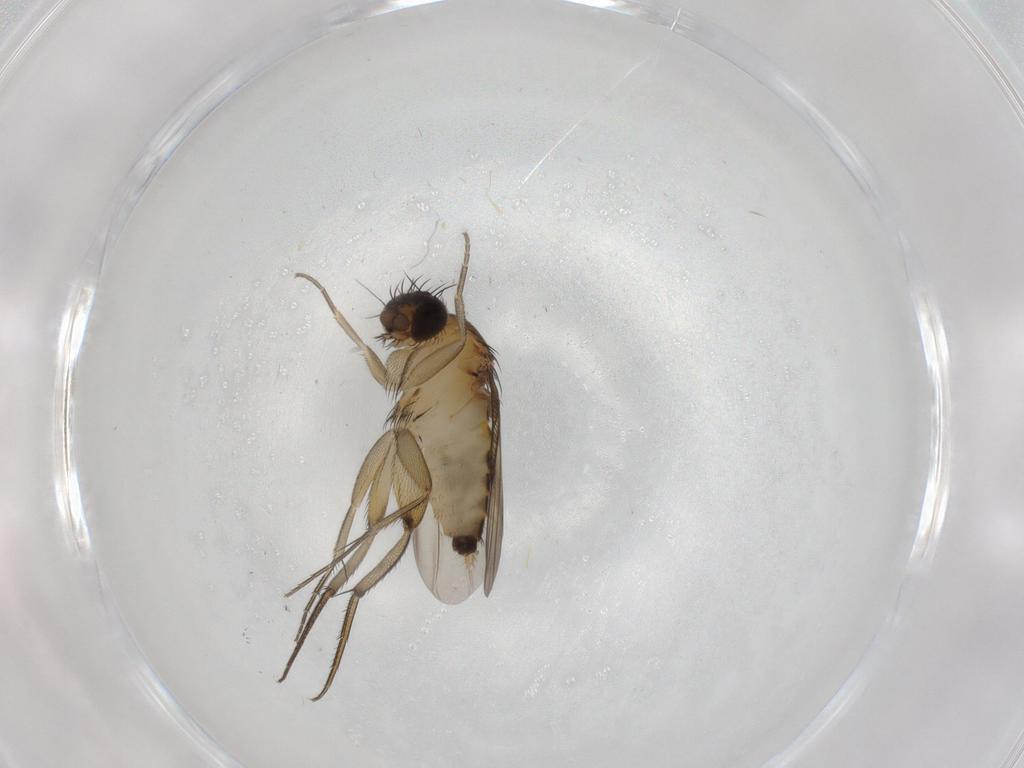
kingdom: Animalia
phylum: Arthropoda
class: Insecta
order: Diptera
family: Phoridae
